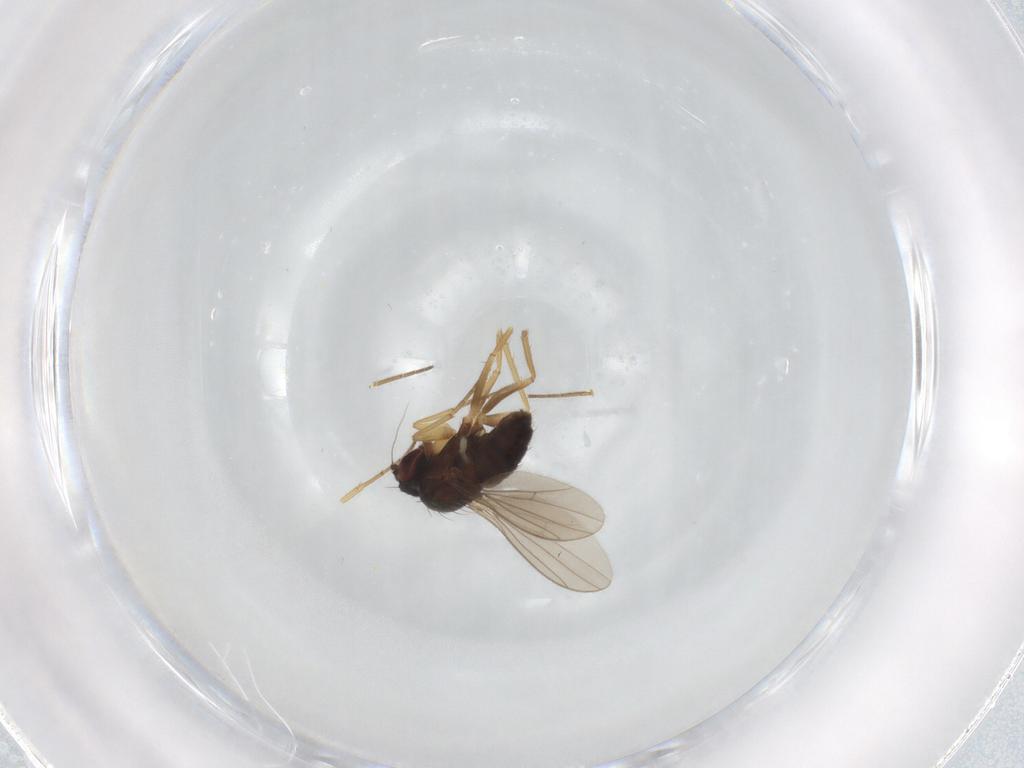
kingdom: Animalia
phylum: Arthropoda
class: Insecta
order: Diptera
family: Dolichopodidae
